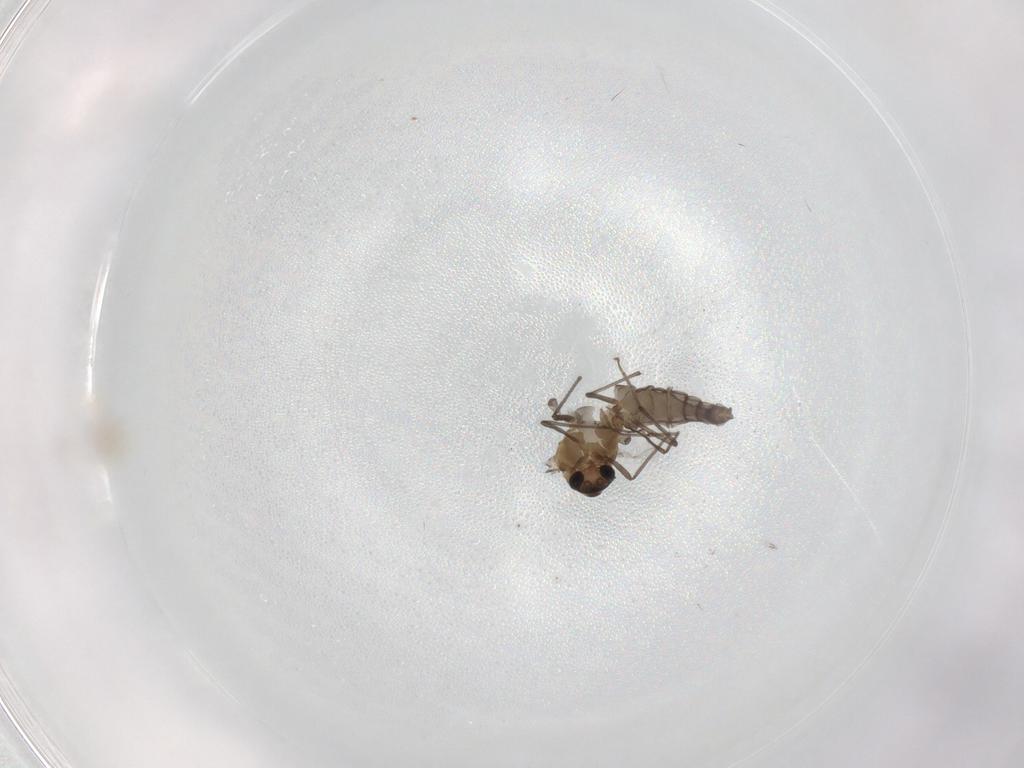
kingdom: Animalia
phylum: Arthropoda
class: Insecta
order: Diptera
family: Chironomidae
